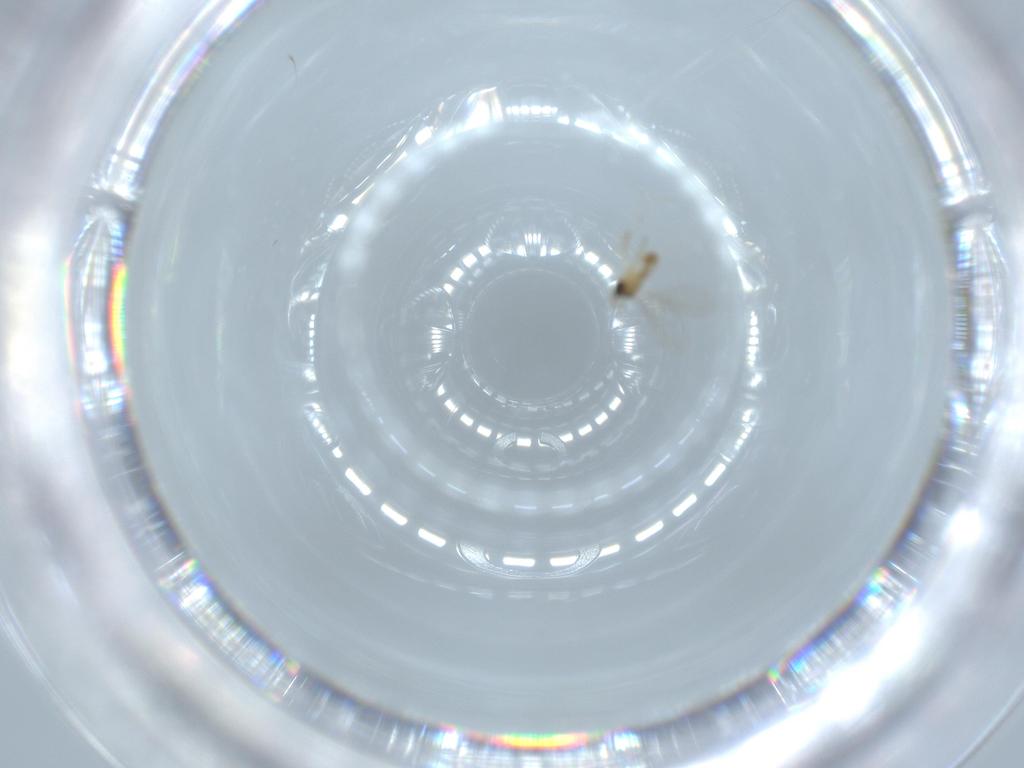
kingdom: Animalia
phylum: Arthropoda
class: Insecta
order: Diptera
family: Cecidomyiidae
